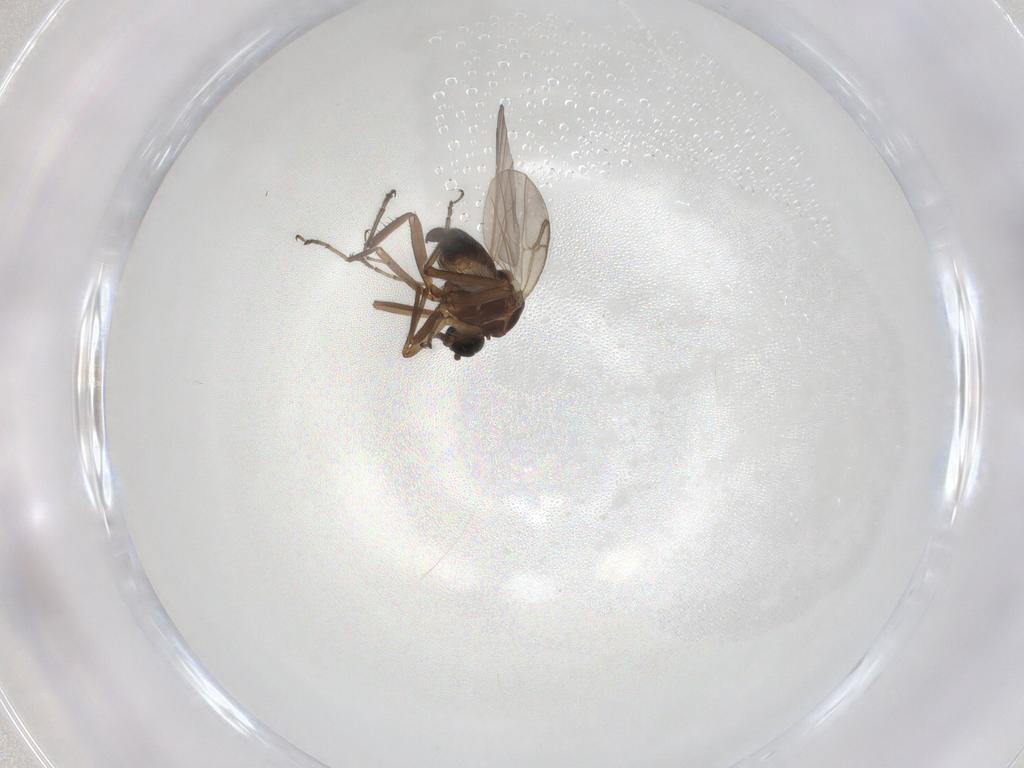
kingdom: Animalia
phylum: Arthropoda
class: Insecta
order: Diptera
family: Ceratopogonidae
